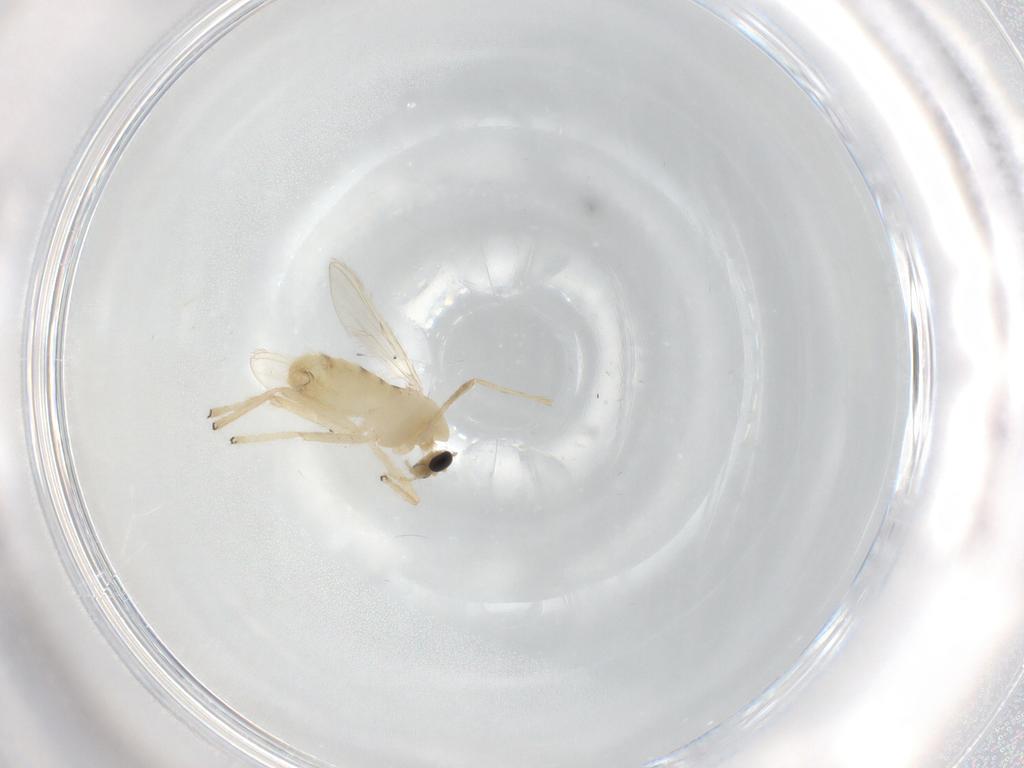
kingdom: Animalia
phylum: Arthropoda
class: Insecta
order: Diptera
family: Chironomidae
